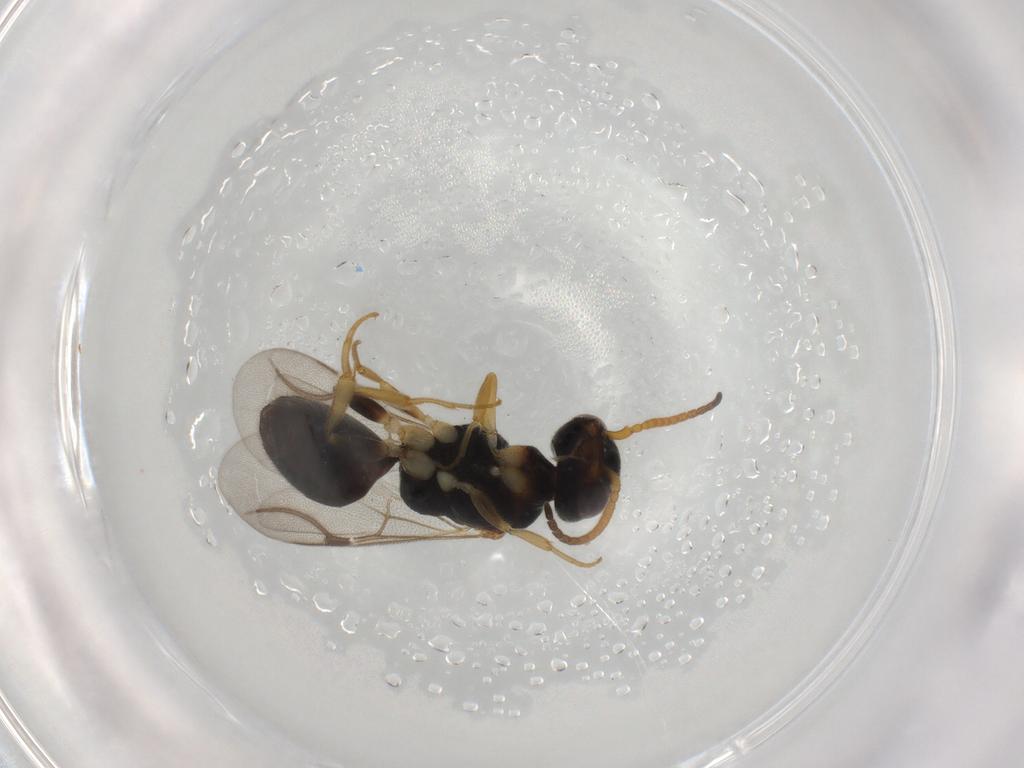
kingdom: Animalia
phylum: Arthropoda
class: Insecta
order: Hymenoptera
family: Bethylidae
